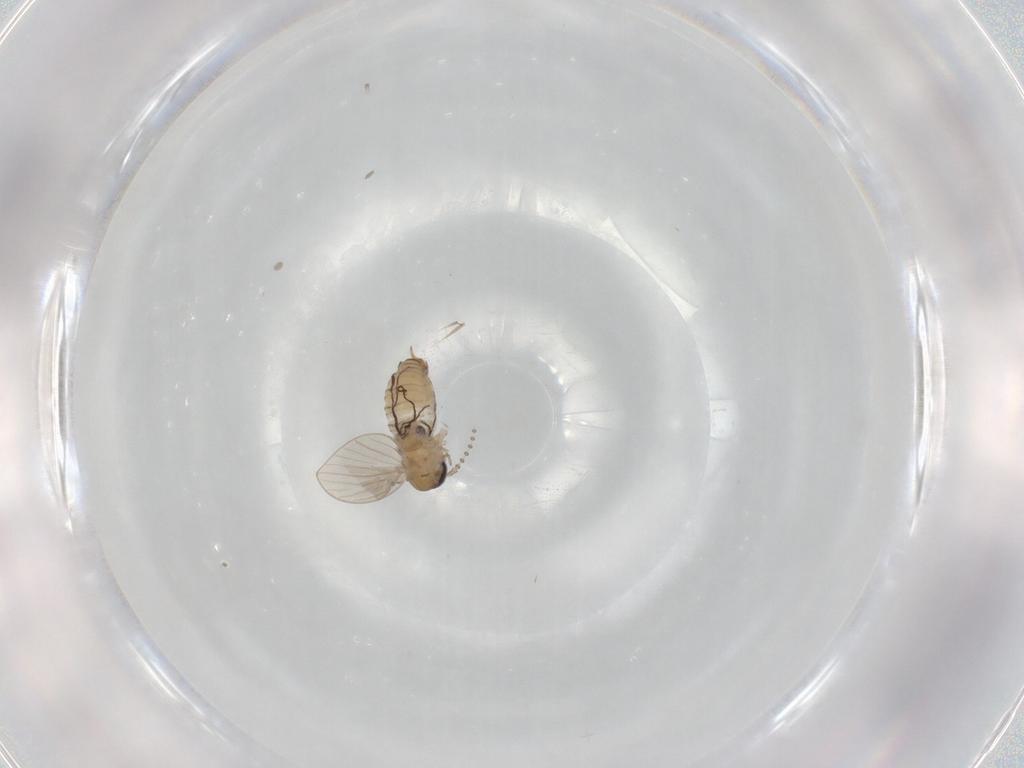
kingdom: Animalia
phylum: Arthropoda
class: Insecta
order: Diptera
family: Psychodidae
